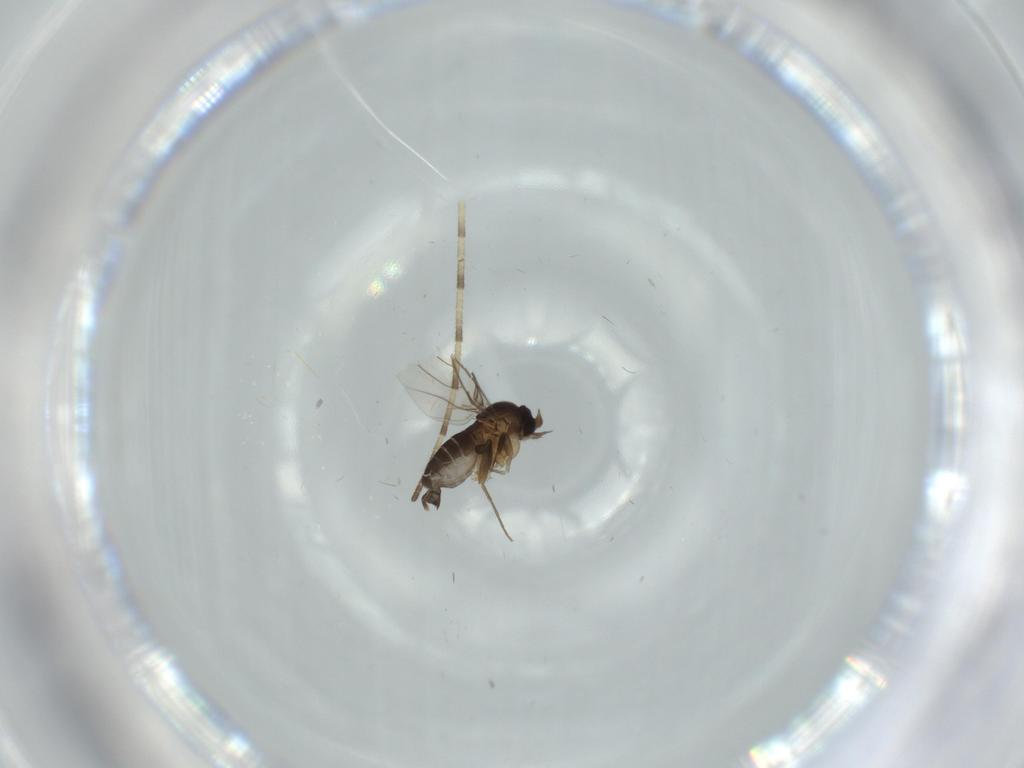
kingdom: Animalia
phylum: Arthropoda
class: Insecta
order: Diptera
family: Phoridae
